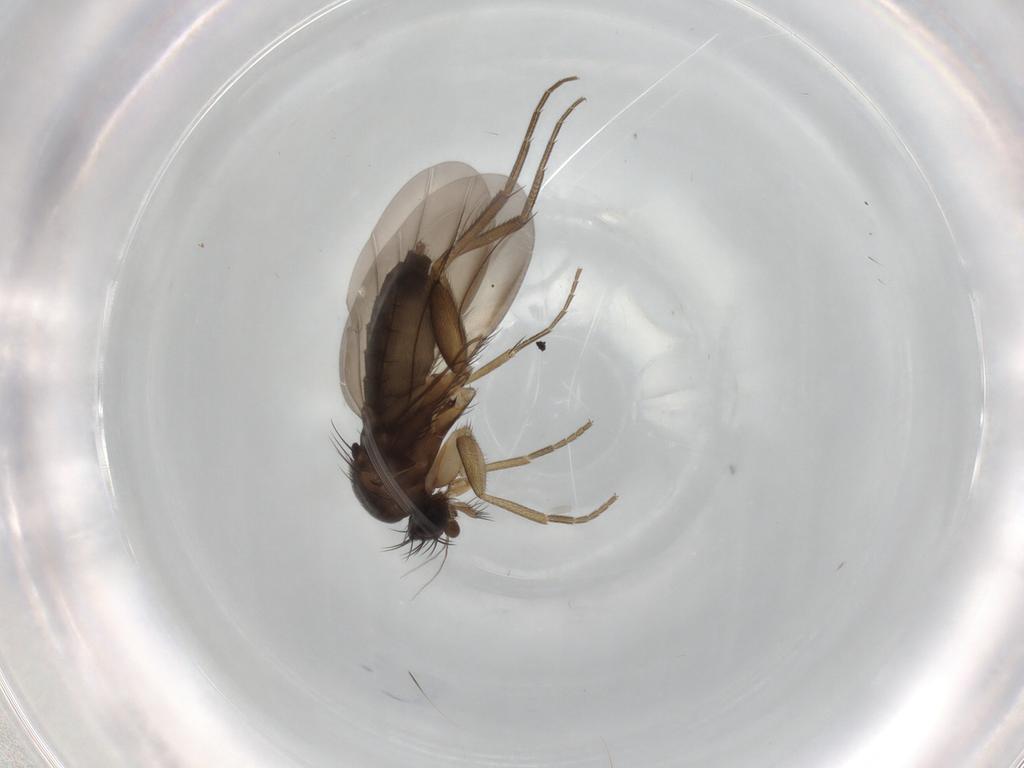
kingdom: Animalia
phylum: Arthropoda
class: Insecta
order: Diptera
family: Phoridae
